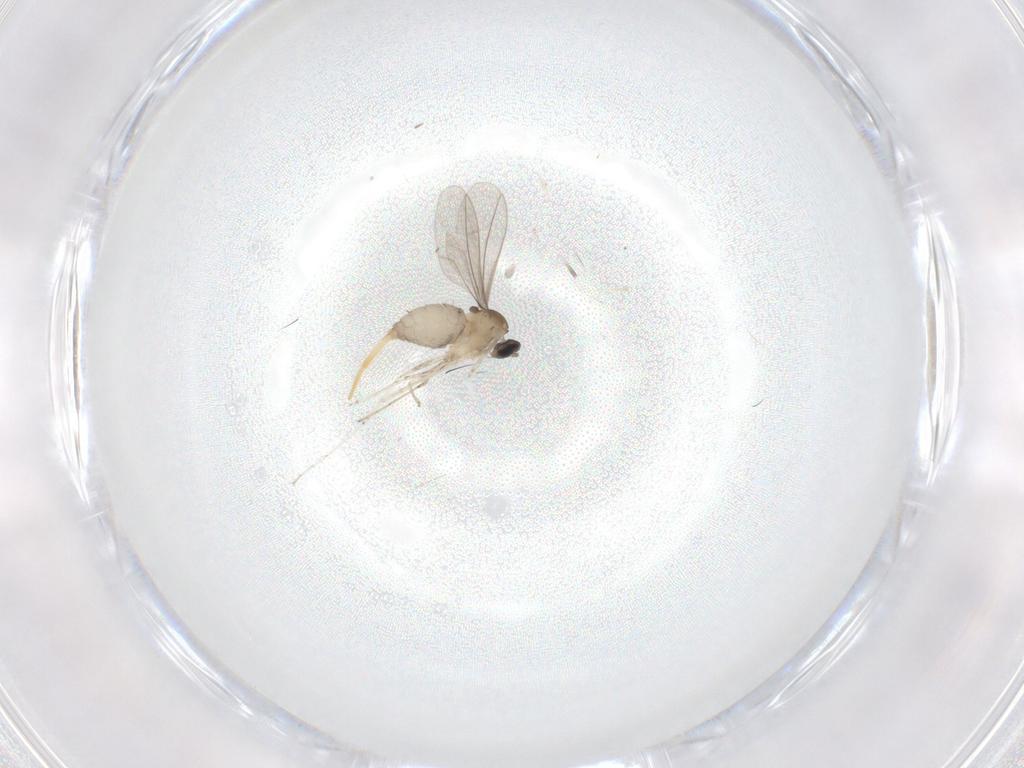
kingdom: Animalia
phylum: Arthropoda
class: Insecta
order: Diptera
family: Cecidomyiidae
